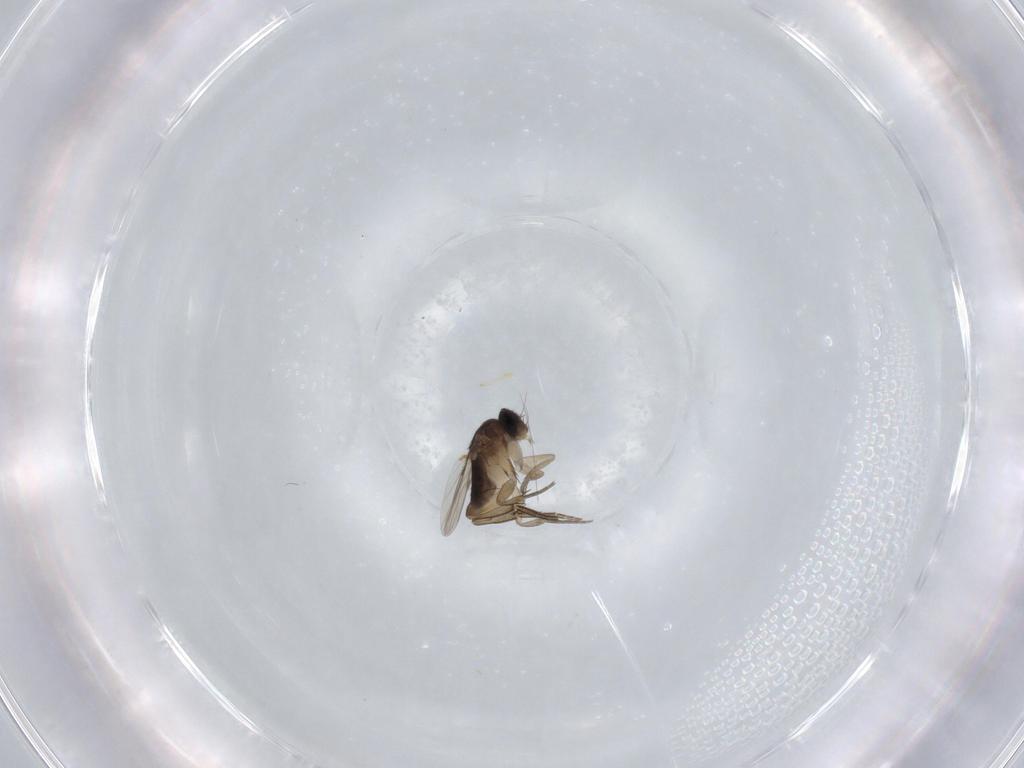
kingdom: Animalia
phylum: Arthropoda
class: Insecta
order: Diptera
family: Phoridae
